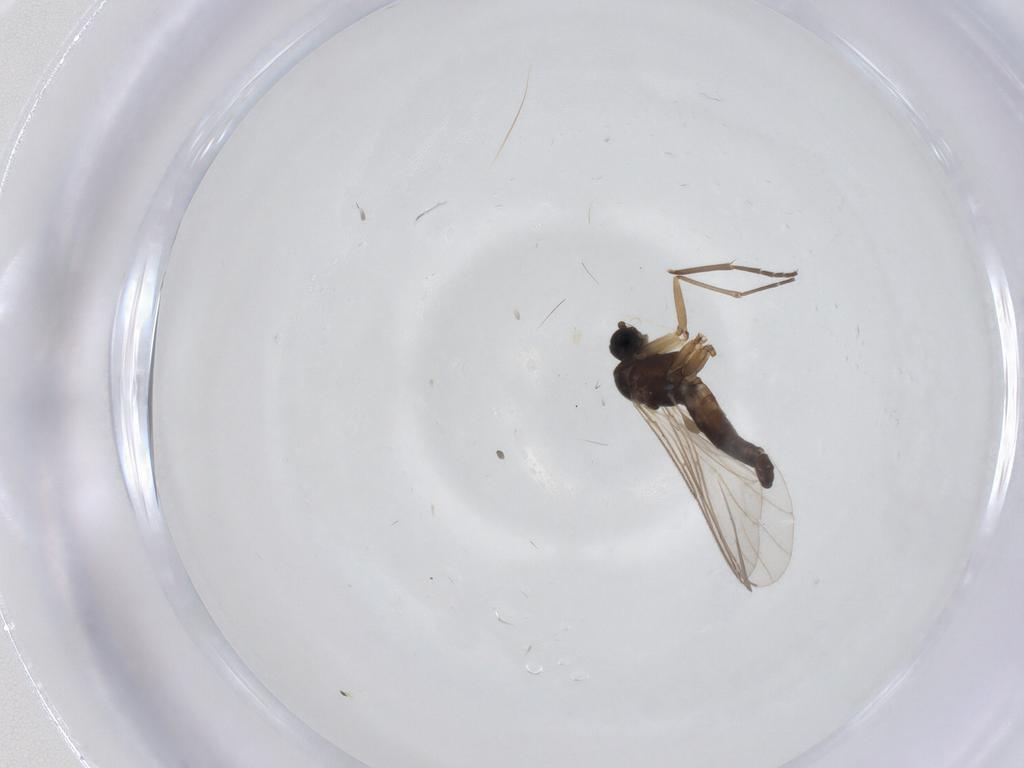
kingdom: Animalia
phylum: Arthropoda
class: Insecta
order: Diptera
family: Sciaridae
